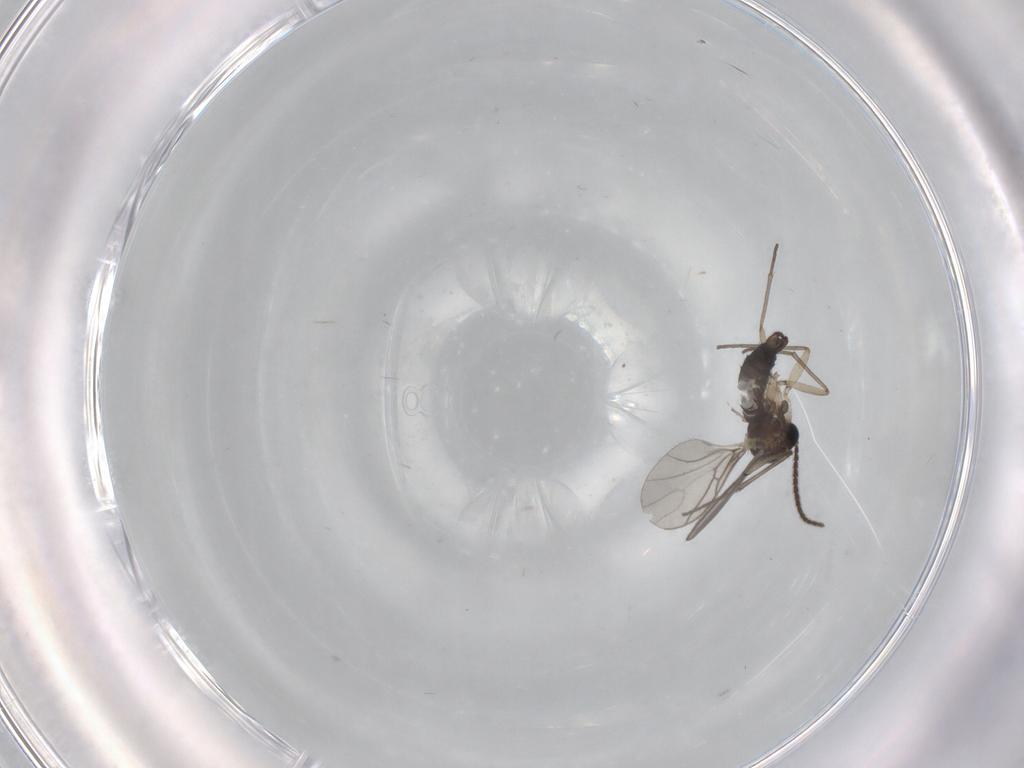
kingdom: Animalia
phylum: Arthropoda
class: Insecta
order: Diptera
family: Sciaridae
